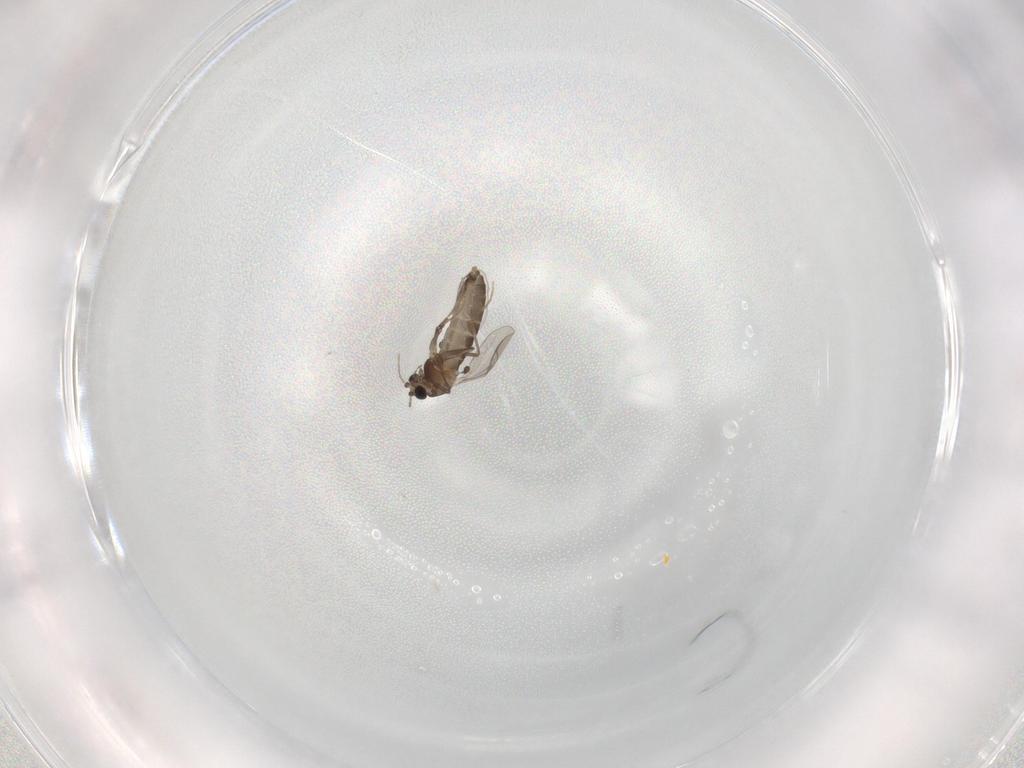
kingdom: Animalia
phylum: Arthropoda
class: Insecta
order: Diptera
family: Chironomidae
